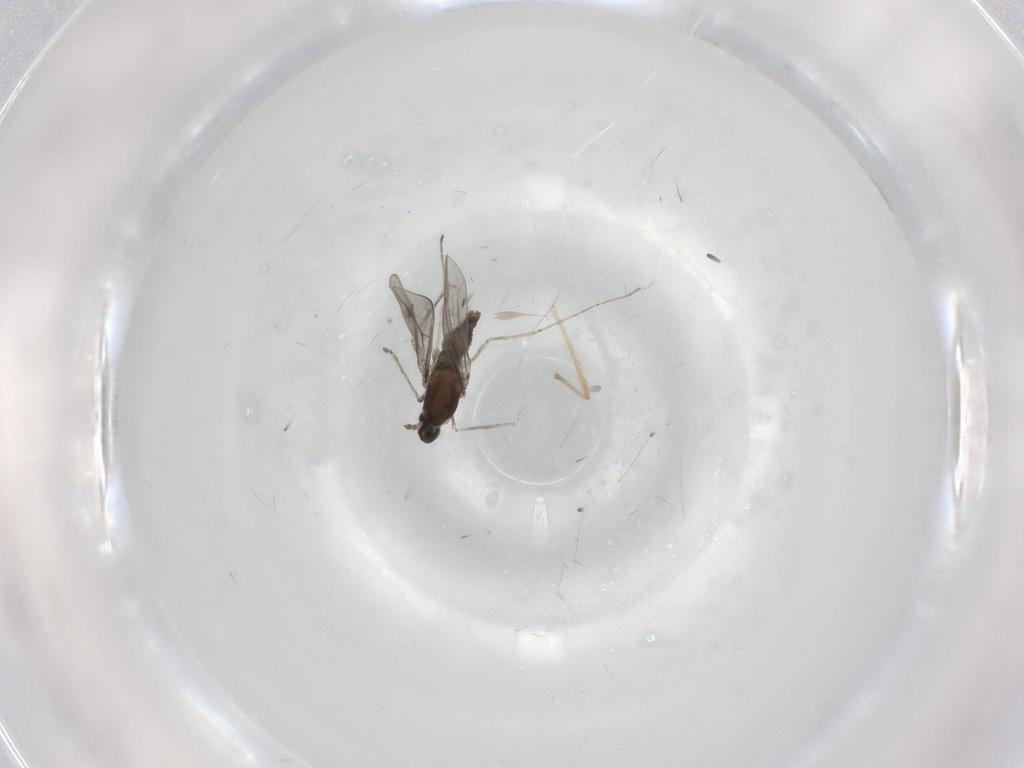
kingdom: Animalia
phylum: Arthropoda
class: Insecta
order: Diptera
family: Cecidomyiidae
